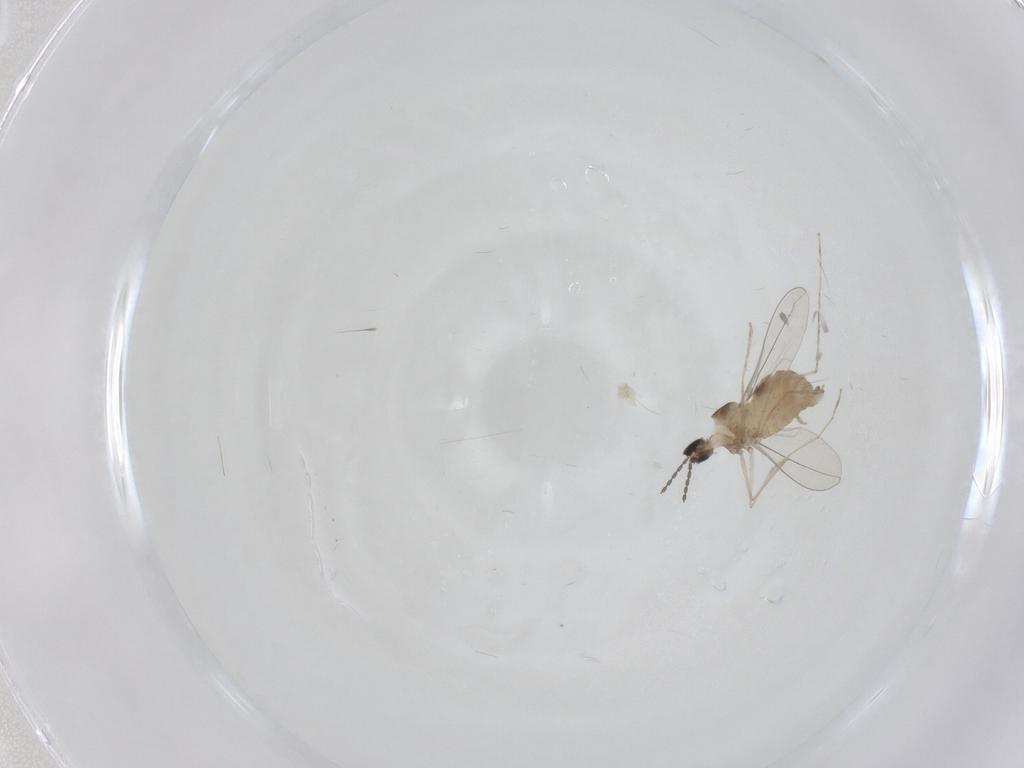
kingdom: Animalia
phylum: Arthropoda
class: Insecta
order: Diptera
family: Cecidomyiidae
